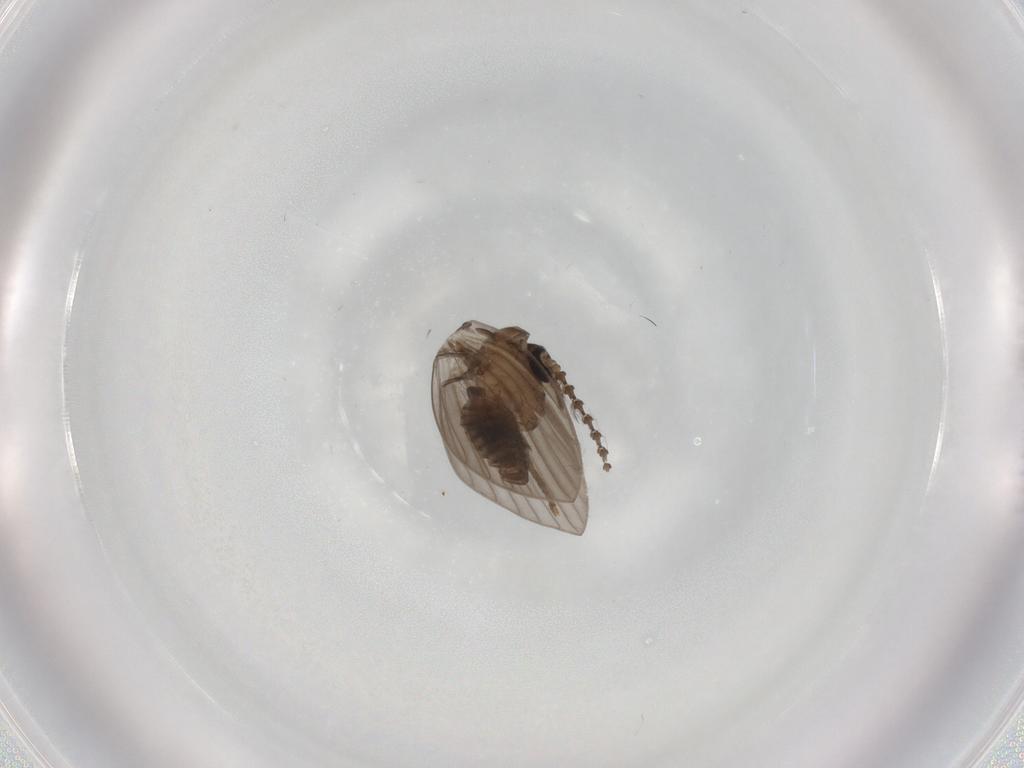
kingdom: Animalia
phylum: Arthropoda
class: Insecta
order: Diptera
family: Psychodidae
